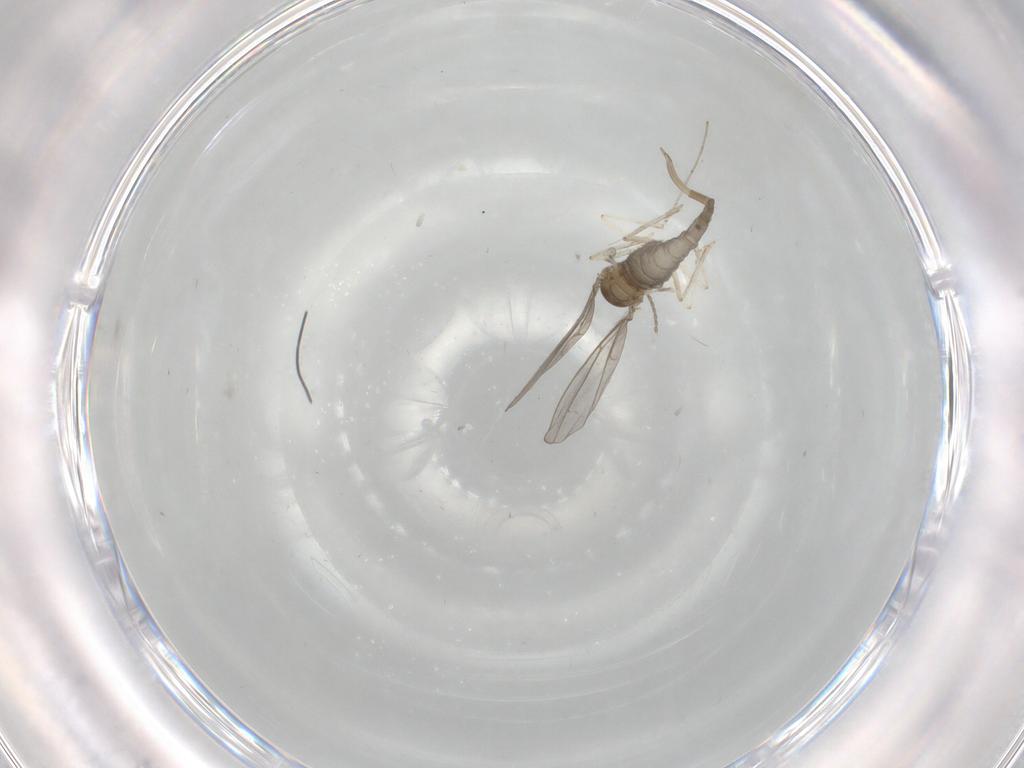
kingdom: Animalia
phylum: Arthropoda
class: Insecta
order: Diptera
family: Cecidomyiidae
